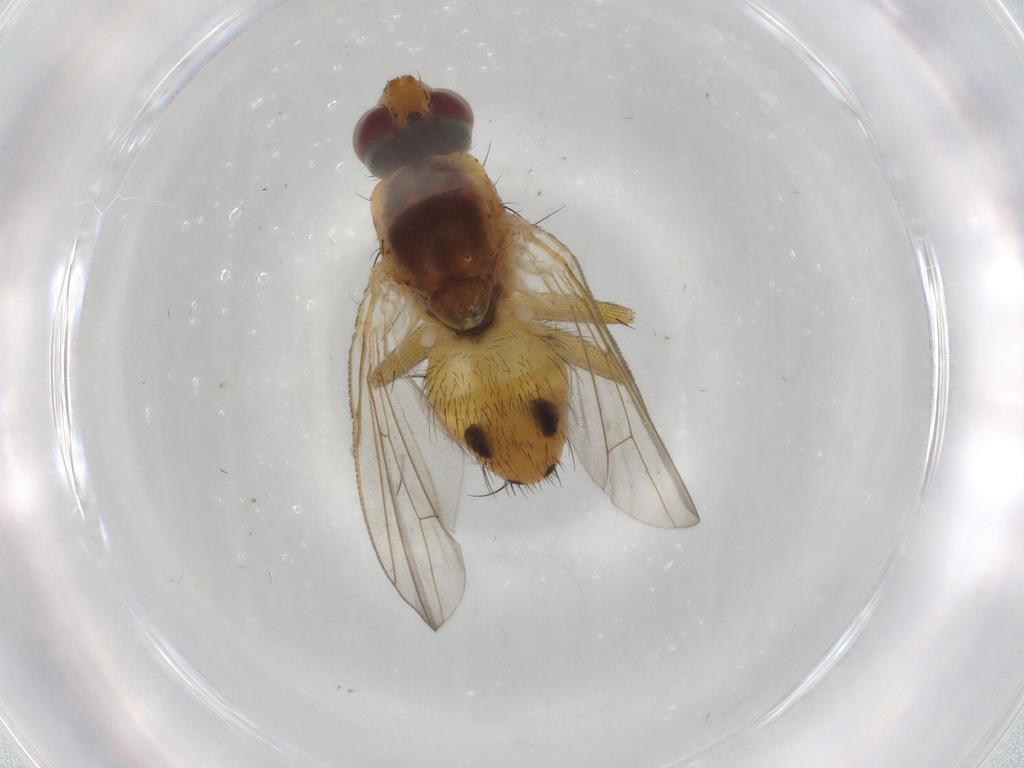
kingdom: Animalia
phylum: Arthropoda
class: Insecta
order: Diptera
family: Muscidae
